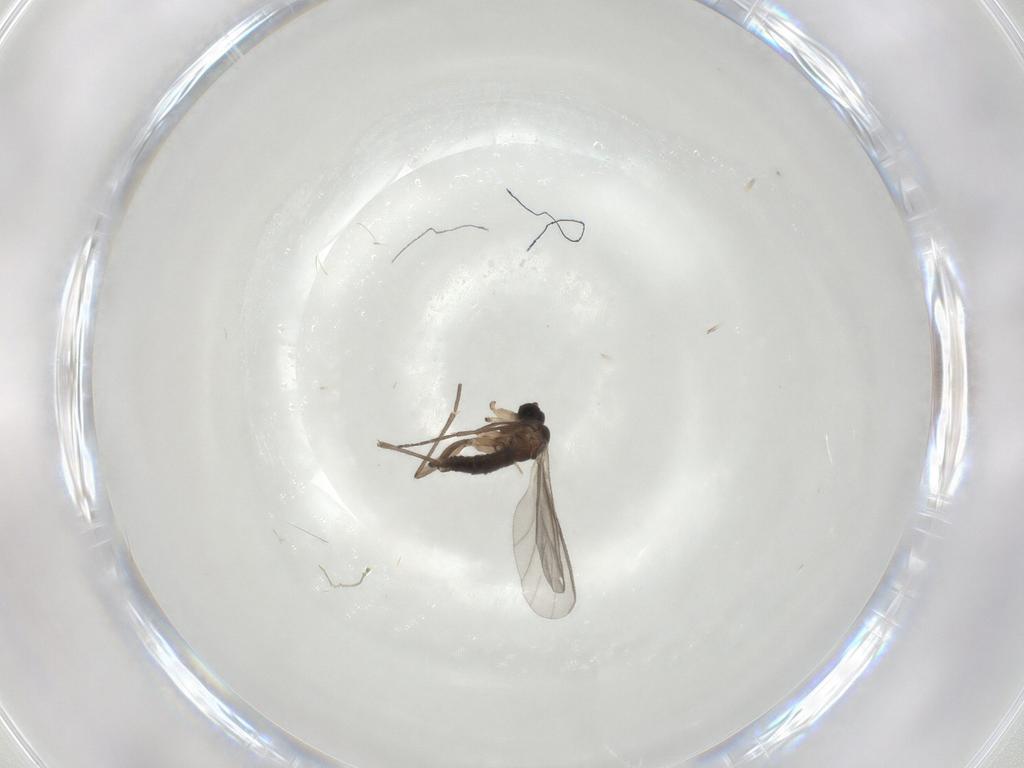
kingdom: Animalia
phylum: Arthropoda
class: Insecta
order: Diptera
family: Sciaridae
